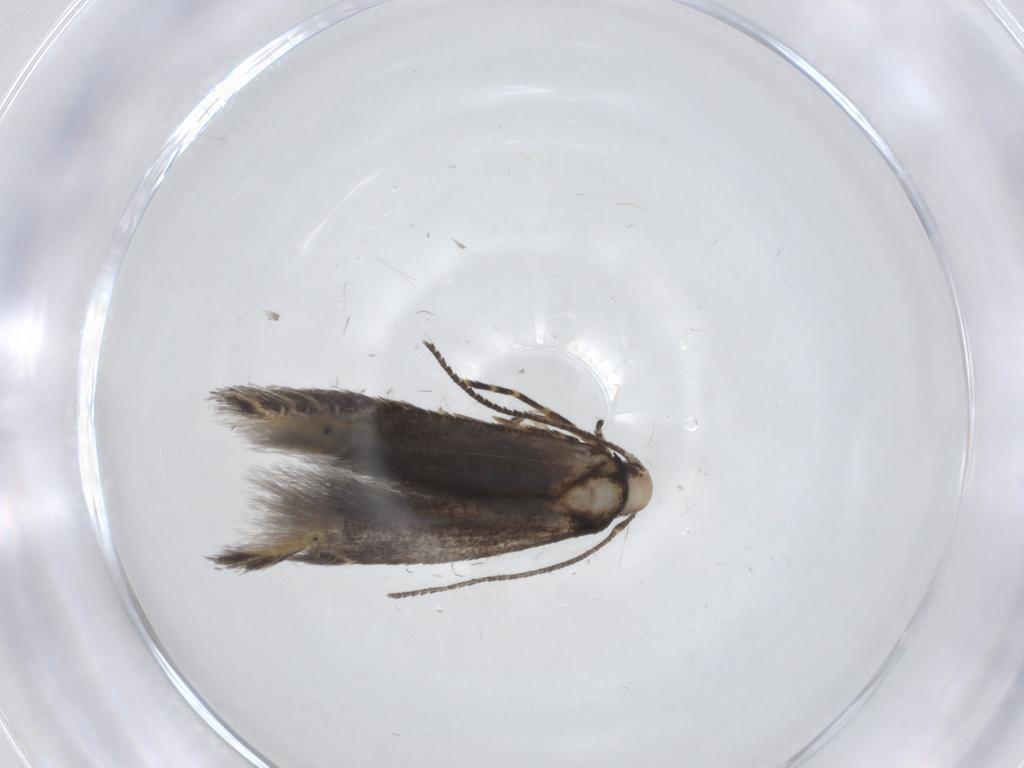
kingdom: Animalia
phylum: Arthropoda
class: Insecta
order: Lepidoptera
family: Cosmopterigidae
